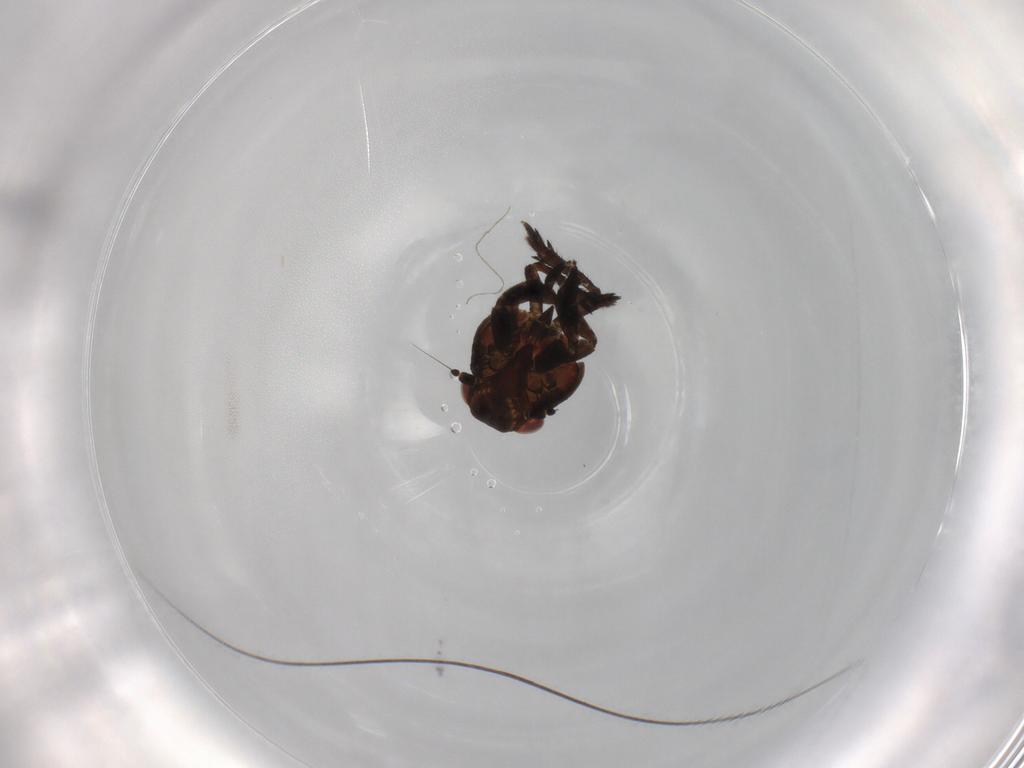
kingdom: Animalia
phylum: Arthropoda
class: Insecta
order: Hemiptera
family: Eurybrachidae
